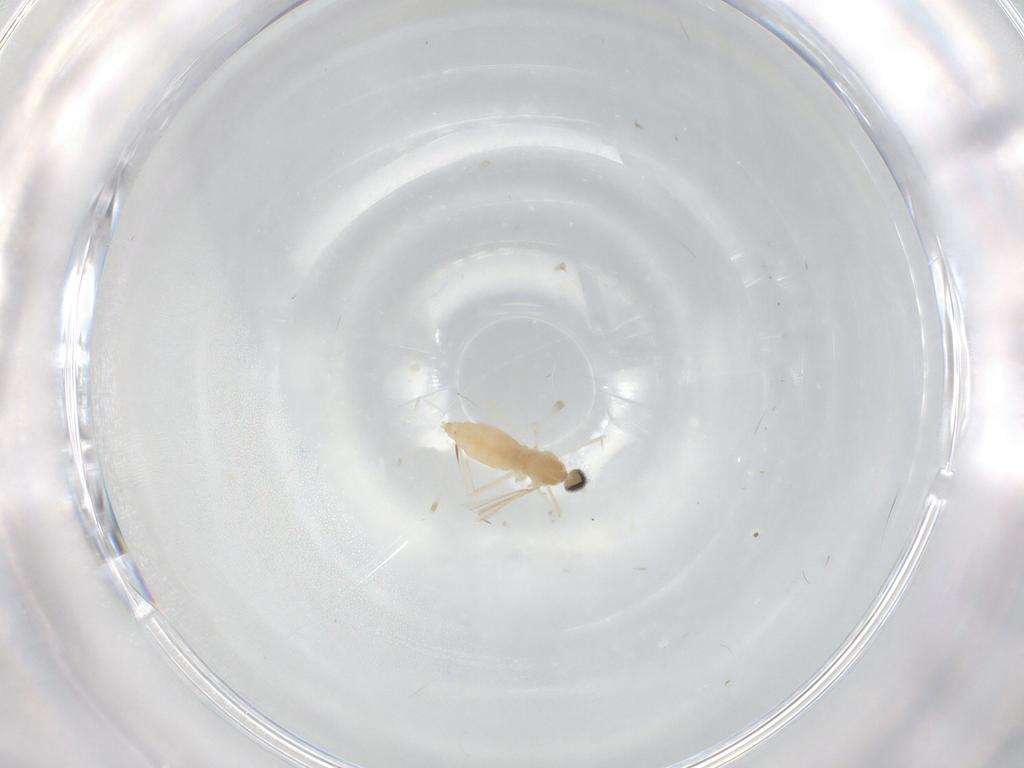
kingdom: Animalia
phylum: Arthropoda
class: Insecta
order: Diptera
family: Cecidomyiidae
